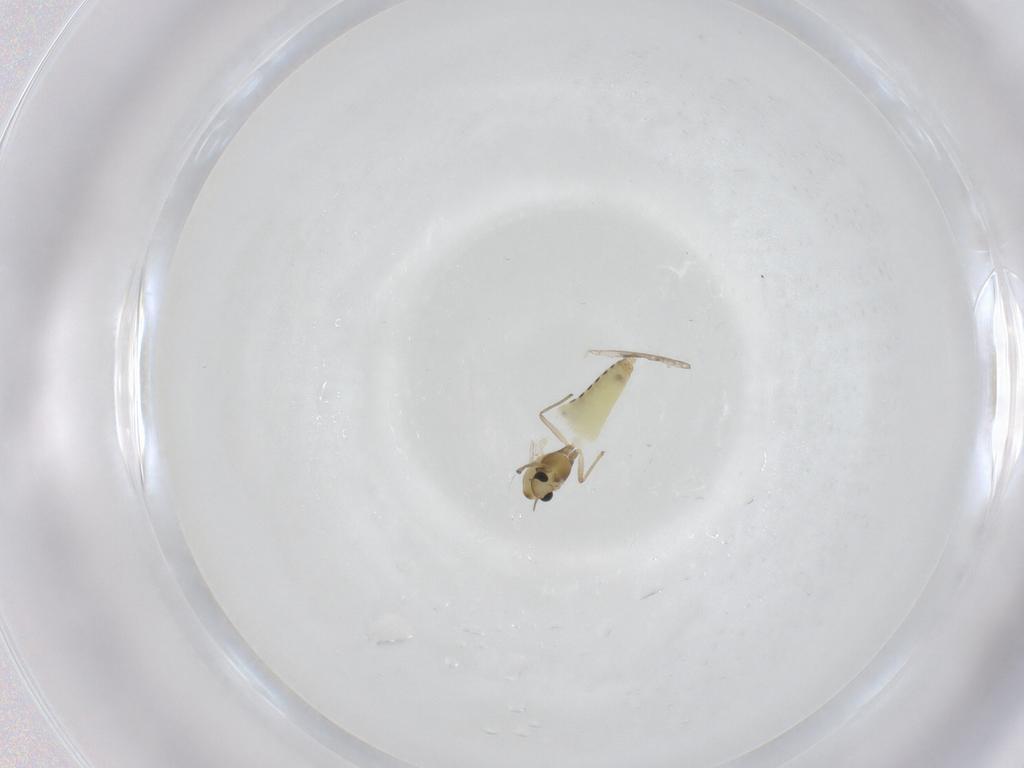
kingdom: Animalia
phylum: Arthropoda
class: Insecta
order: Diptera
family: Chironomidae
